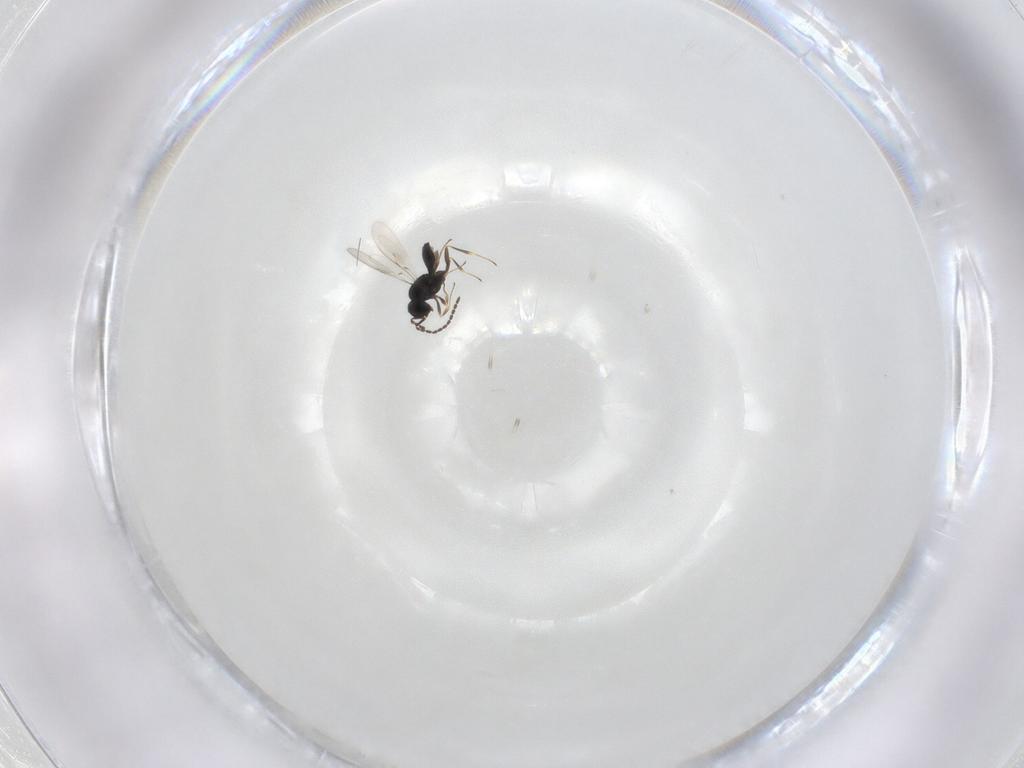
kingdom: Animalia
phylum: Arthropoda
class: Insecta
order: Hymenoptera
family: Scelionidae
